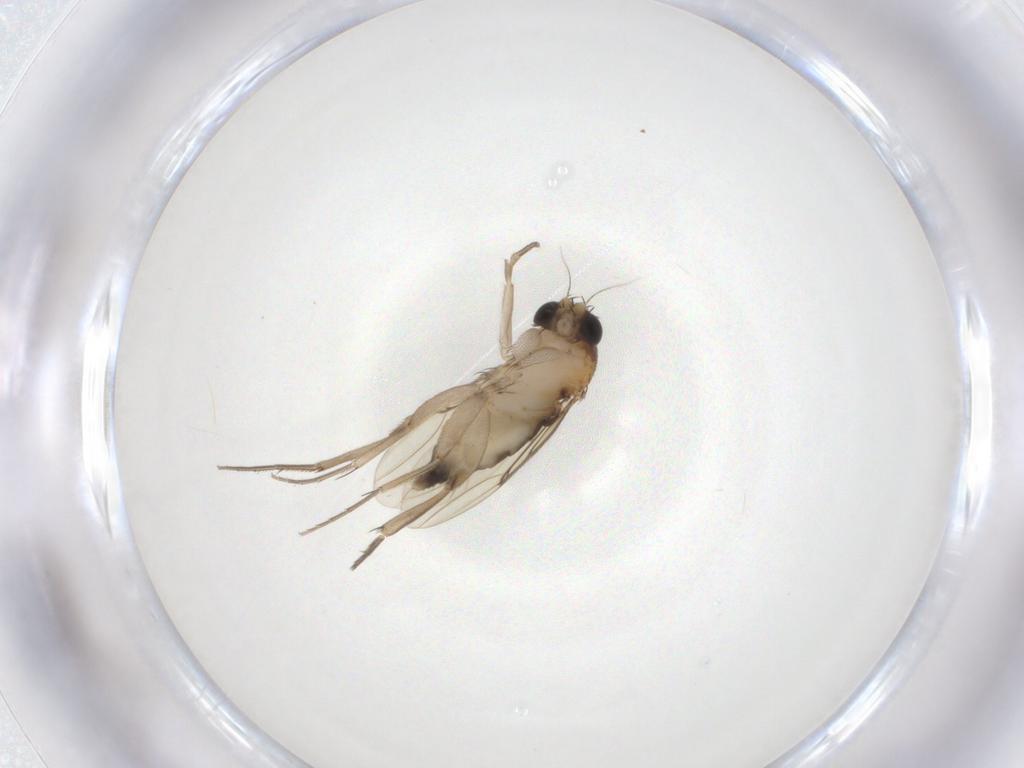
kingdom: Animalia
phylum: Arthropoda
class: Insecta
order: Diptera
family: Phoridae
